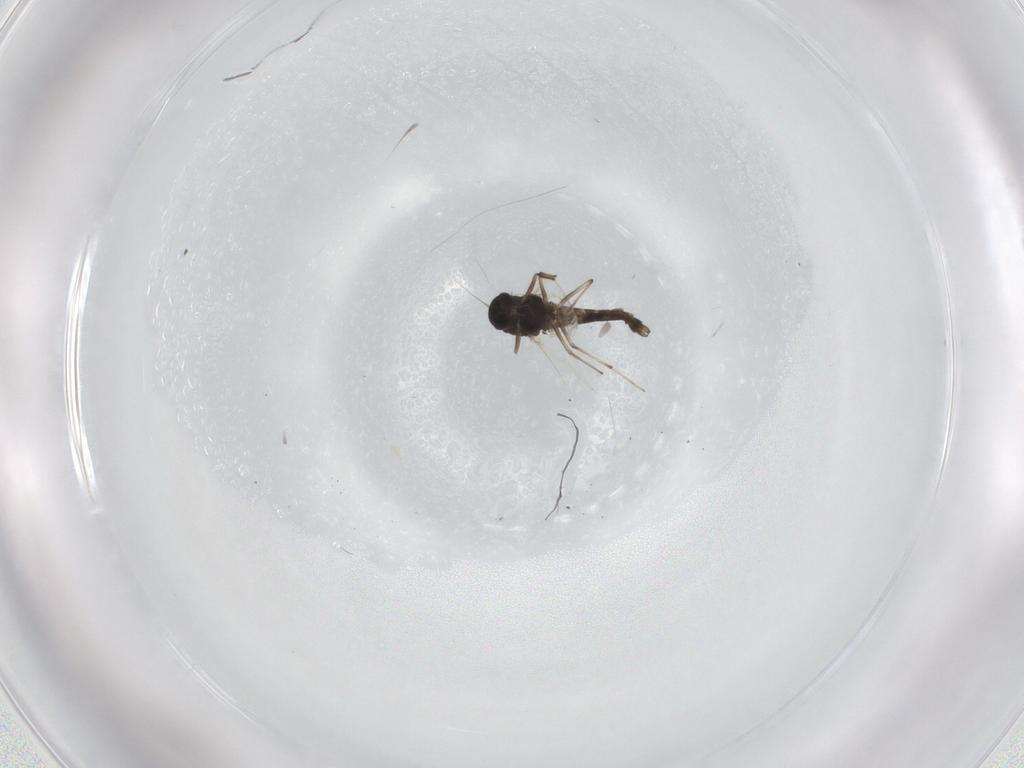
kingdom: Animalia
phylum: Arthropoda
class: Insecta
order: Diptera
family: Chironomidae
